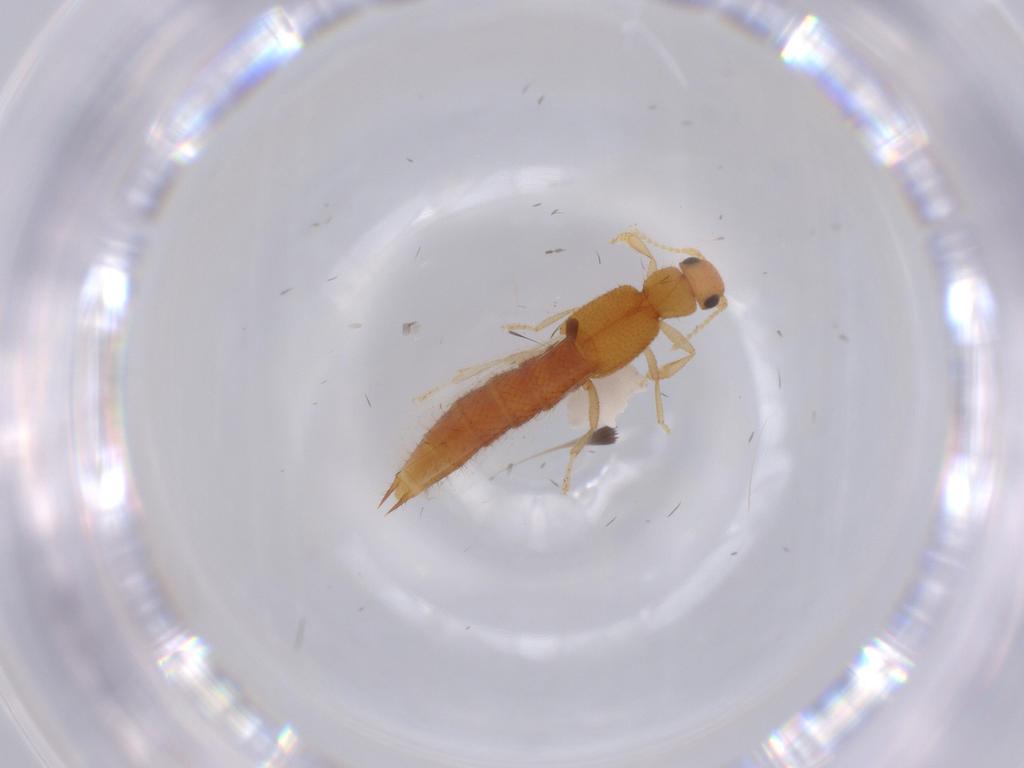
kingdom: Animalia
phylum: Arthropoda
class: Insecta
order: Coleoptera
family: Staphylinidae
